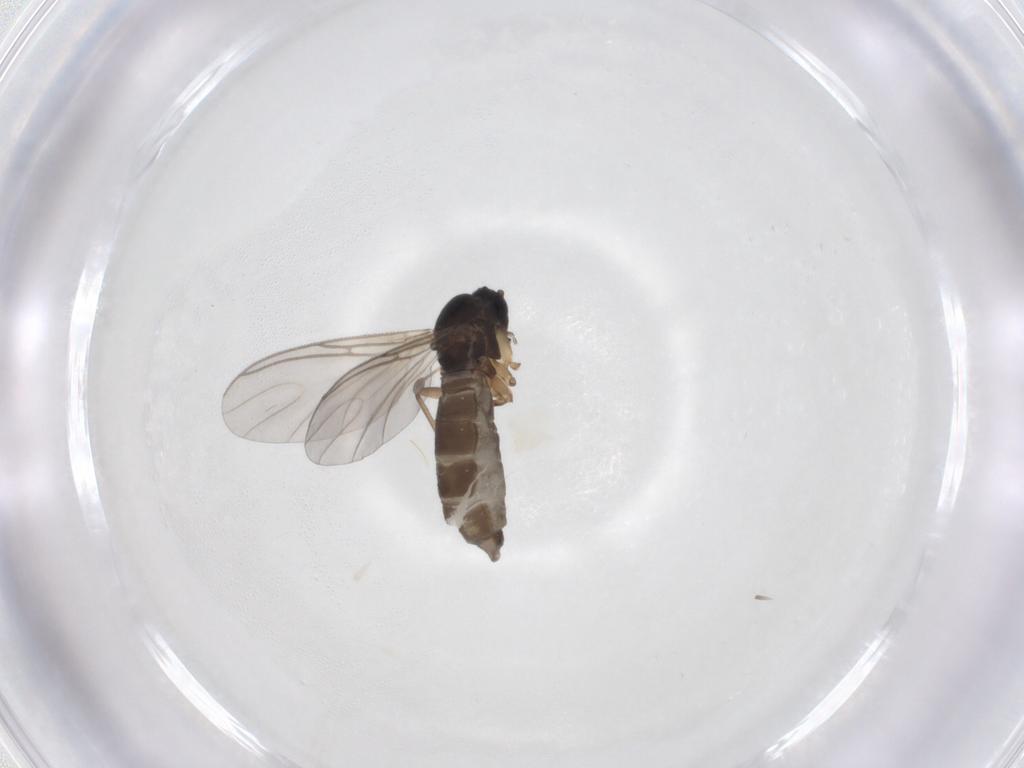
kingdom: Animalia
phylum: Arthropoda
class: Insecta
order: Diptera
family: Sciaridae
